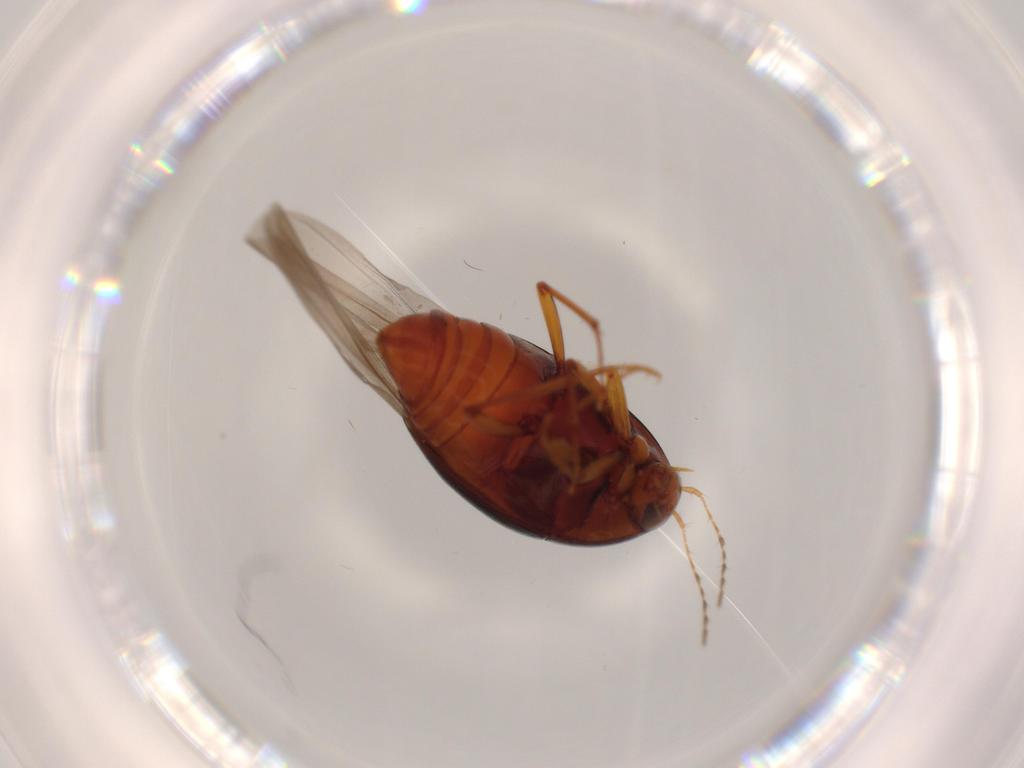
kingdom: Animalia
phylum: Arthropoda
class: Insecta
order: Coleoptera
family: Staphylinidae
